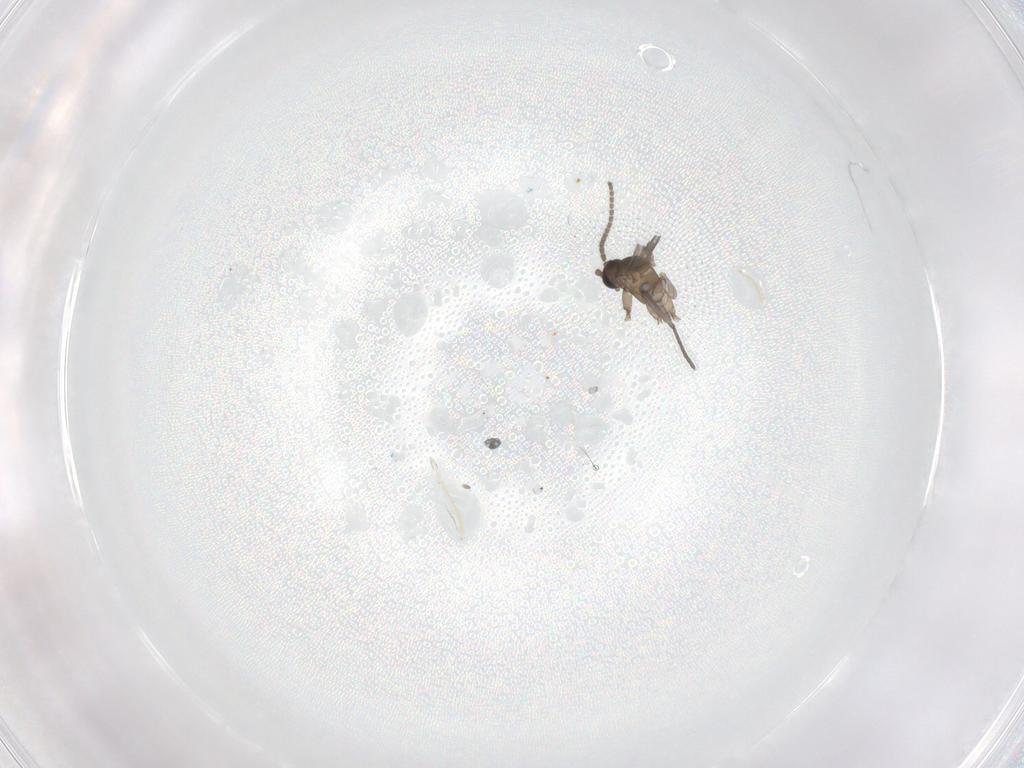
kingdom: Animalia
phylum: Arthropoda
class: Insecta
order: Diptera
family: Sciaridae
